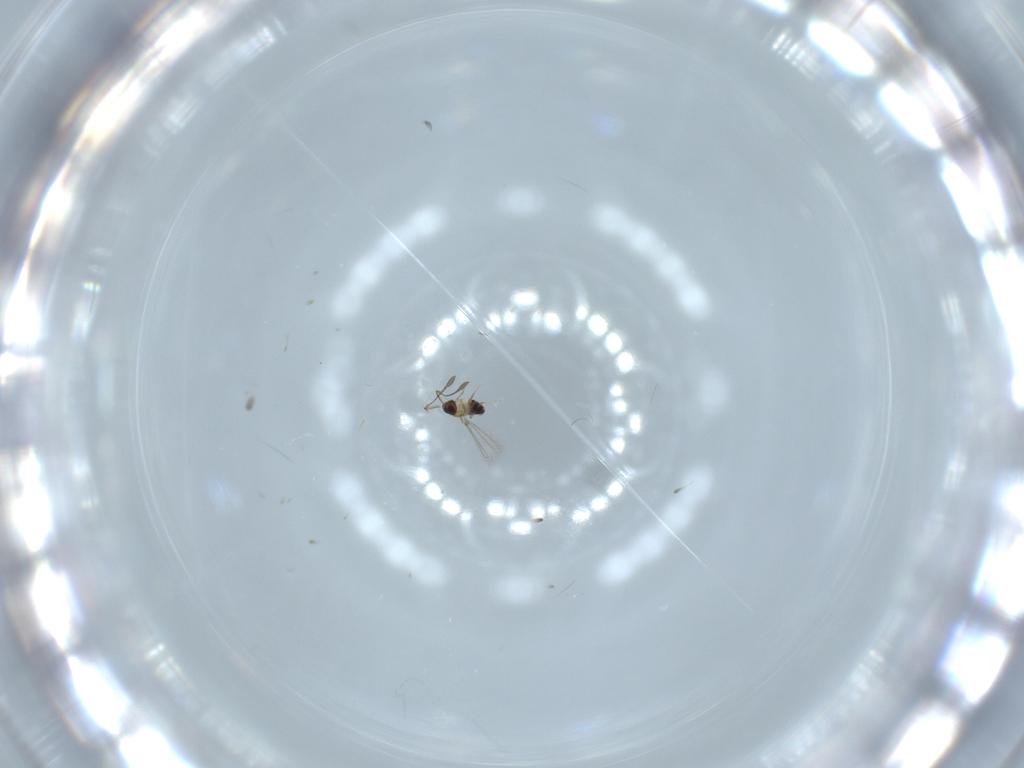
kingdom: Animalia
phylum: Arthropoda
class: Insecta
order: Hymenoptera
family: Mymaridae
